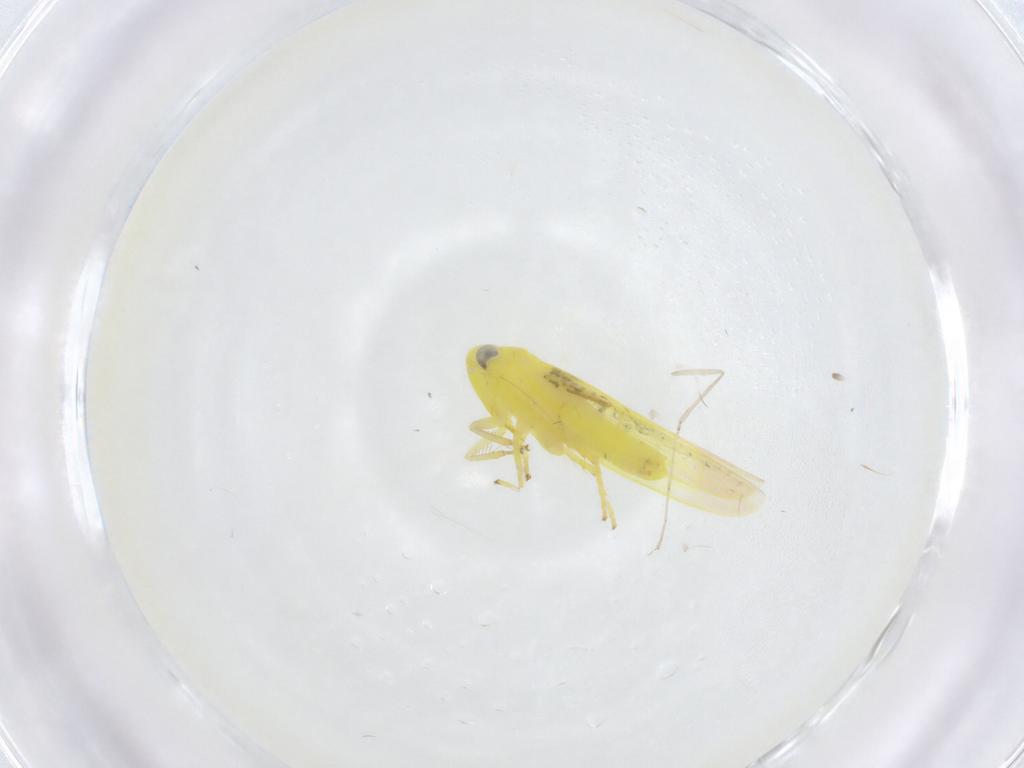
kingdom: Animalia
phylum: Arthropoda
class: Insecta
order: Hemiptera
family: Cicadellidae
